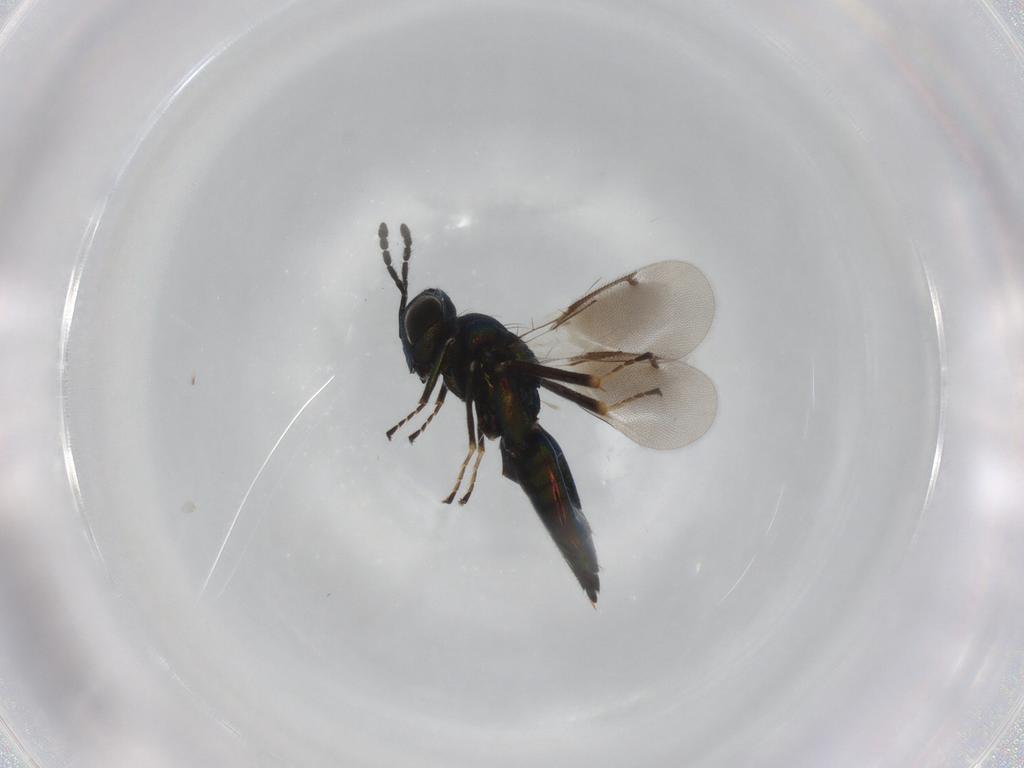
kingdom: Animalia
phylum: Arthropoda
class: Insecta
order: Hymenoptera
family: Eulophidae
